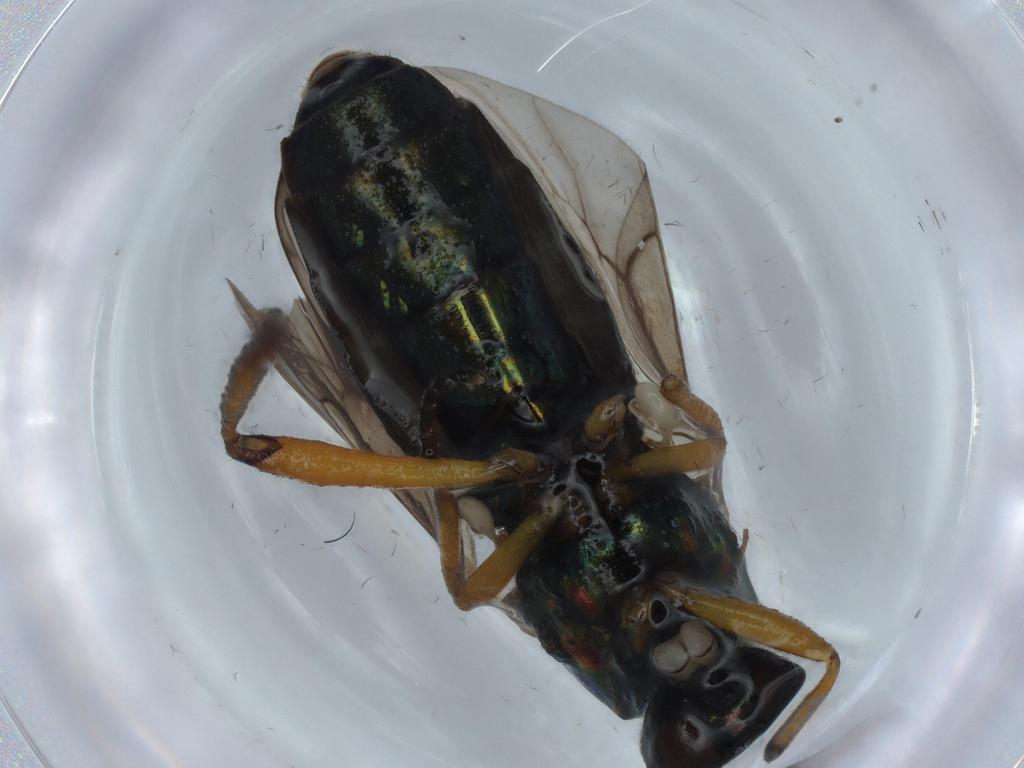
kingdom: Animalia
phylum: Arthropoda
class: Insecta
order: Diptera
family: Stratiomyidae
